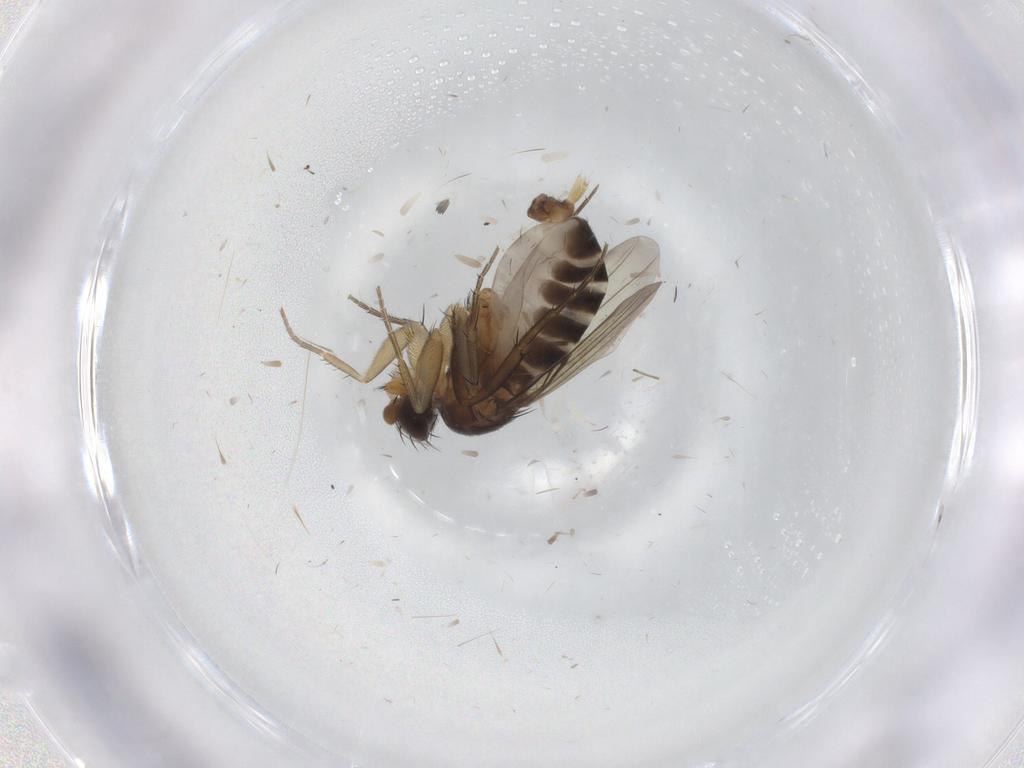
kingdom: Animalia
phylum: Arthropoda
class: Insecta
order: Diptera
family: Phoridae
